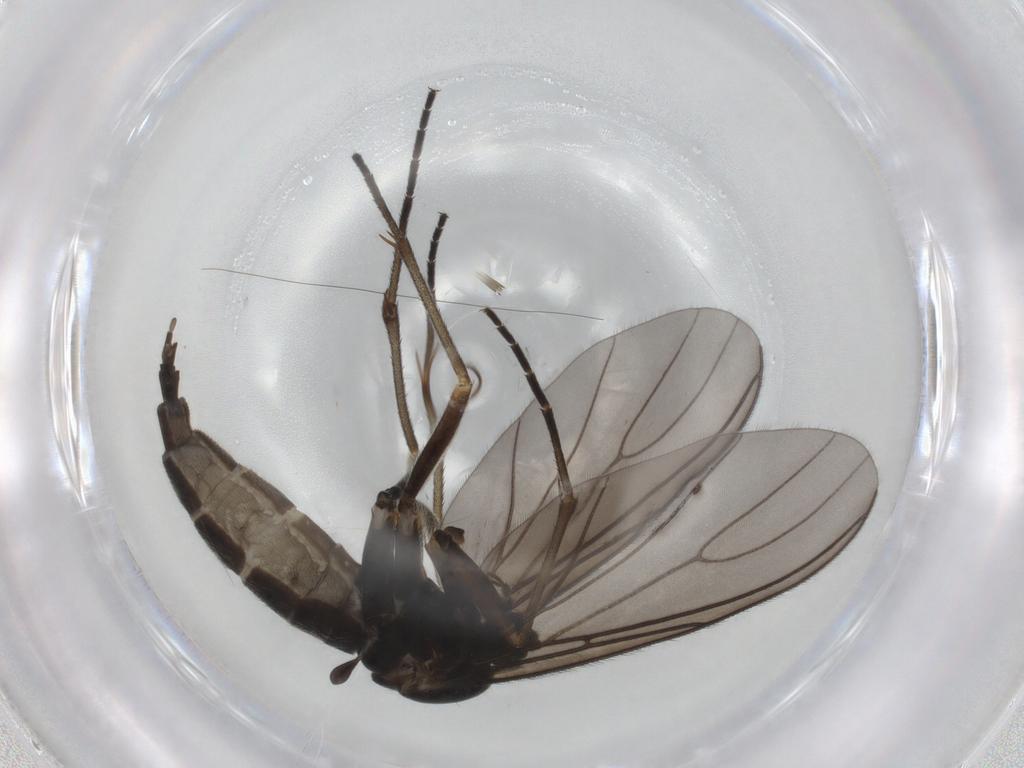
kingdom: Animalia
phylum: Arthropoda
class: Insecta
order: Diptera
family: Sciaridae
